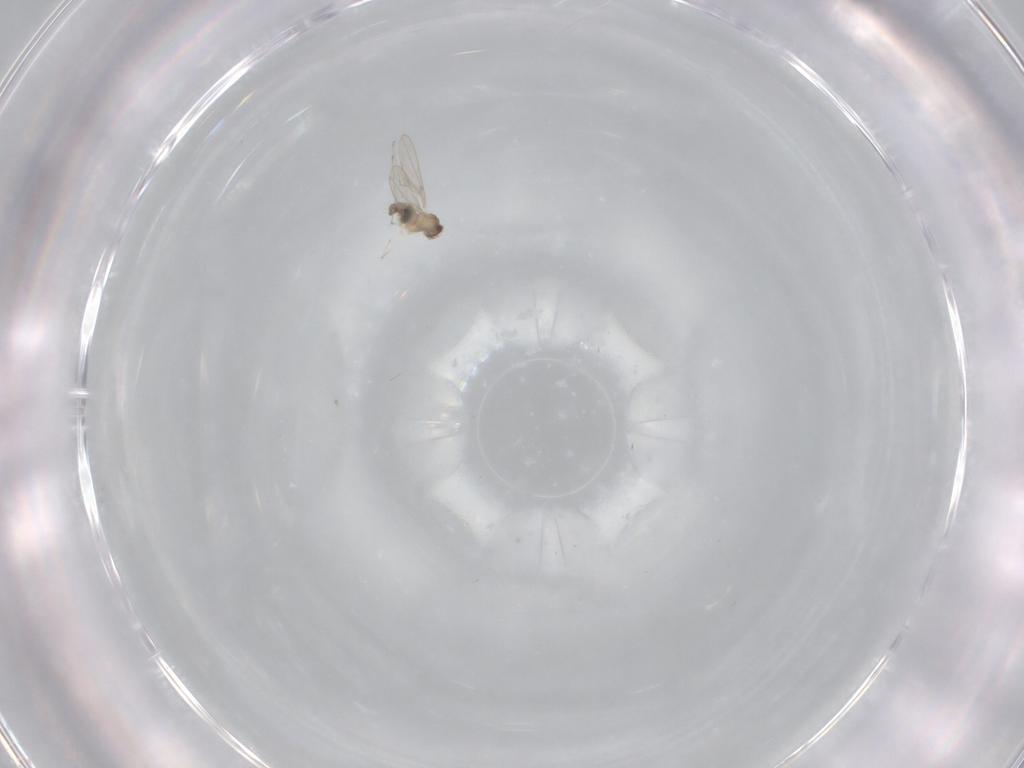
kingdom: Animalia
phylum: Arthropoda
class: Insecta
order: Diptera
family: Cecidomyiidae
